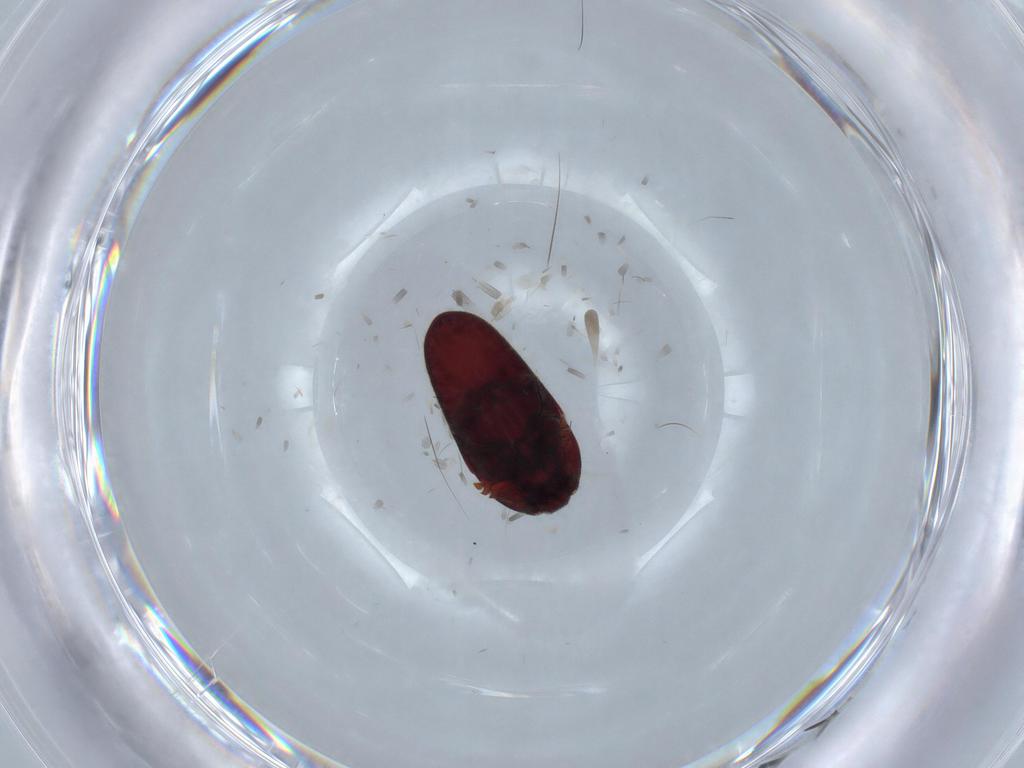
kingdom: Animalia
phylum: Arthropoda
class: Insecta
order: Coleoptera
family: Throscidae
